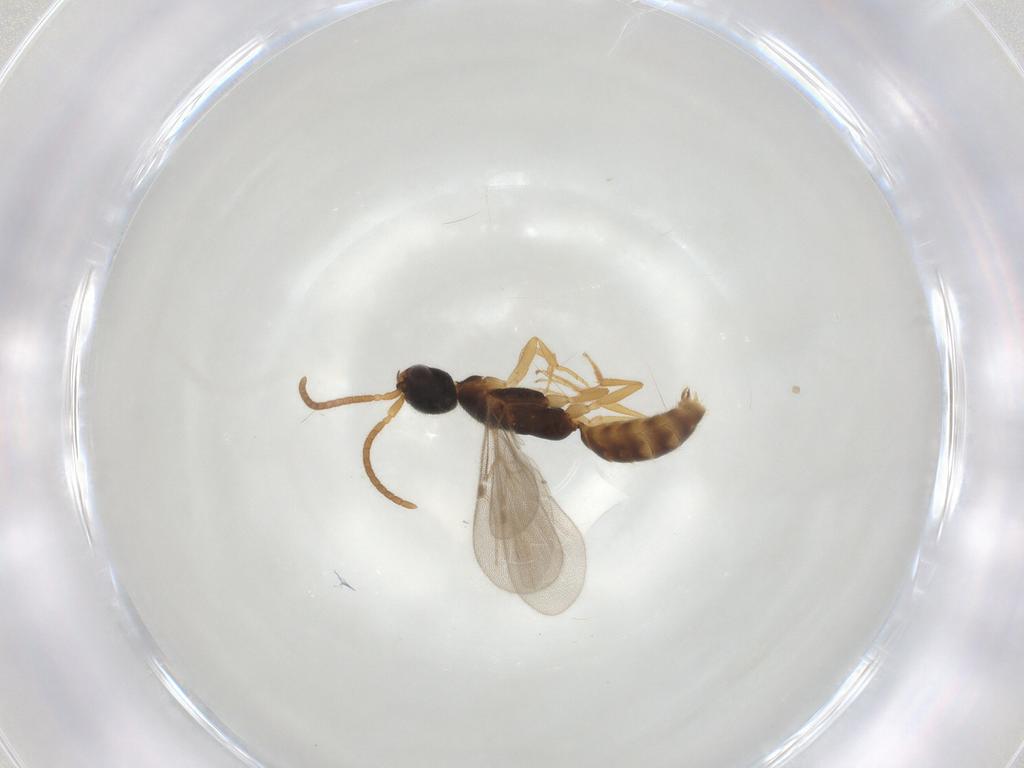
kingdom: Animalia
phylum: Arthropoda
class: Insecta
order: Hymenoptera
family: Bethylidae
